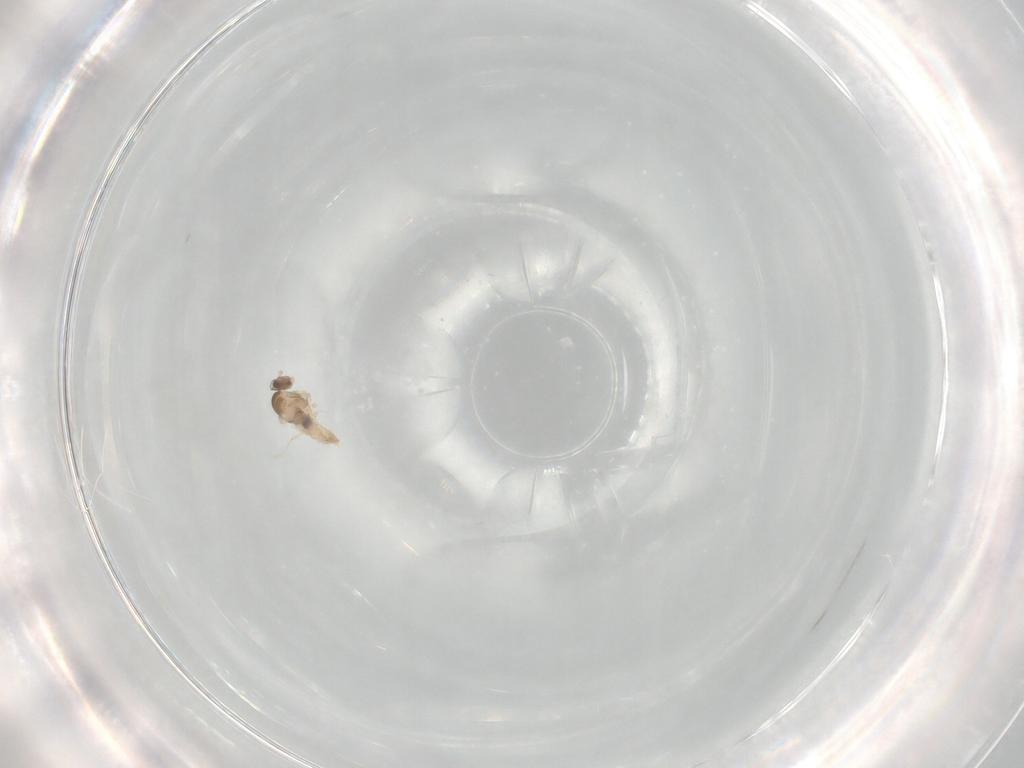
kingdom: Animalia
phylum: Arthropoda
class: Insecta
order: Diptera
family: Cecidomyiidae
